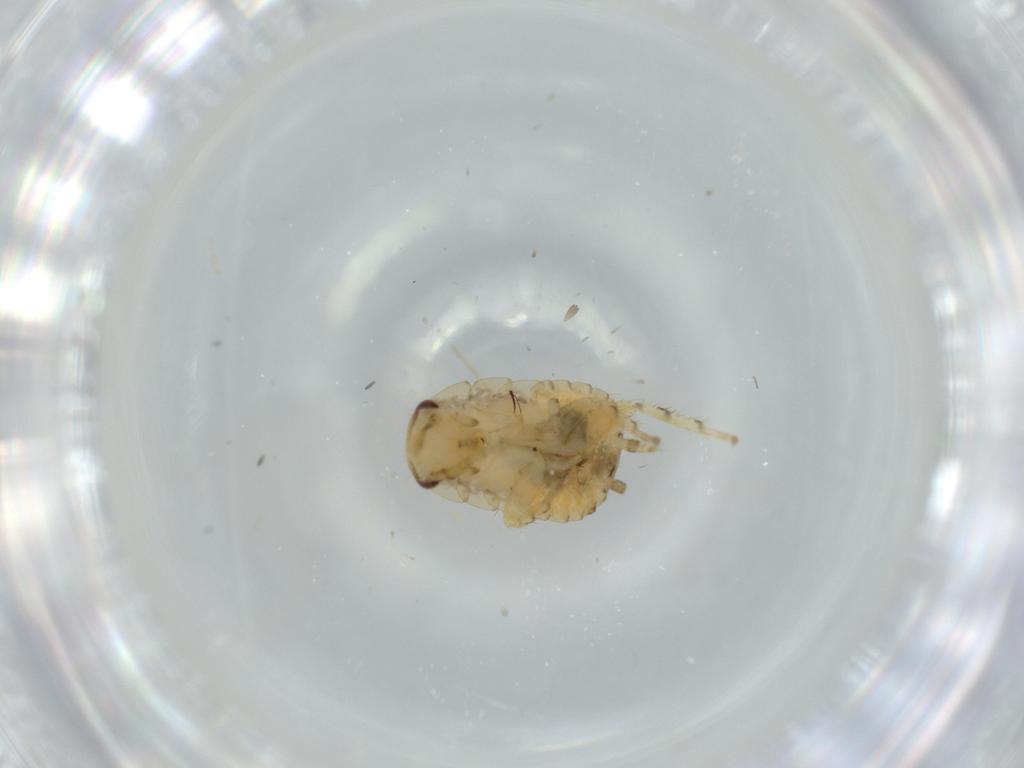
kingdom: Animalia
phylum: Arthropoda
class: Insecta
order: Blattodea
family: Ectobiidae
